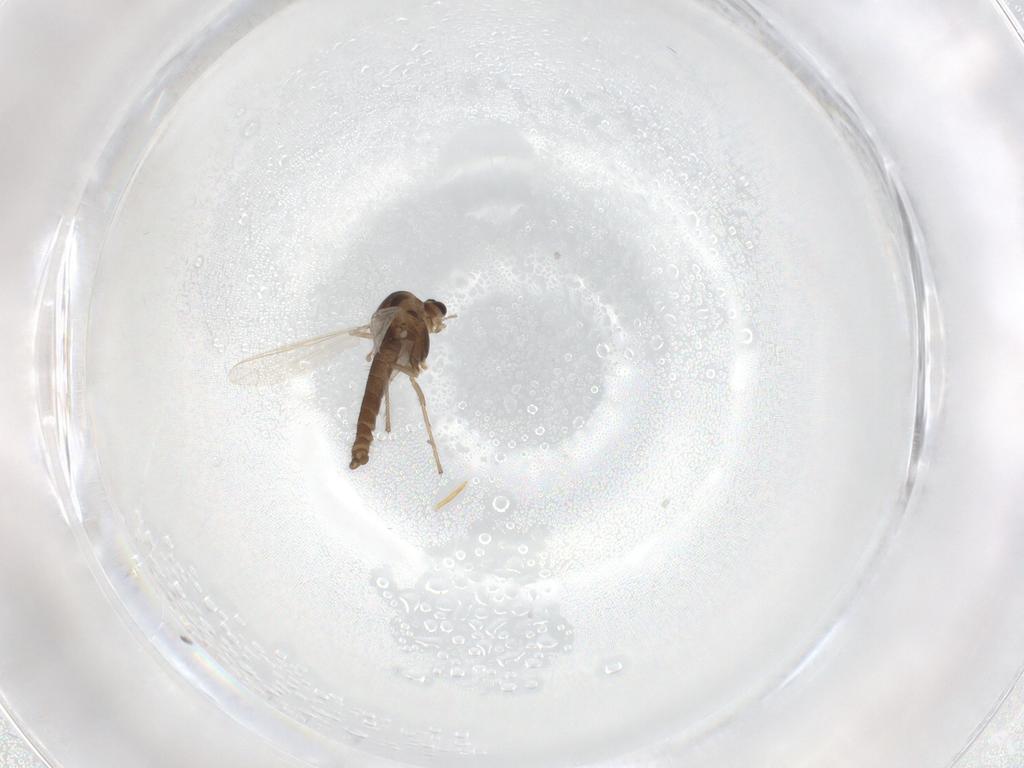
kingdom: Animalia
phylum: Arthropoda
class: Insecta
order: Diptera
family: Chironomidae
